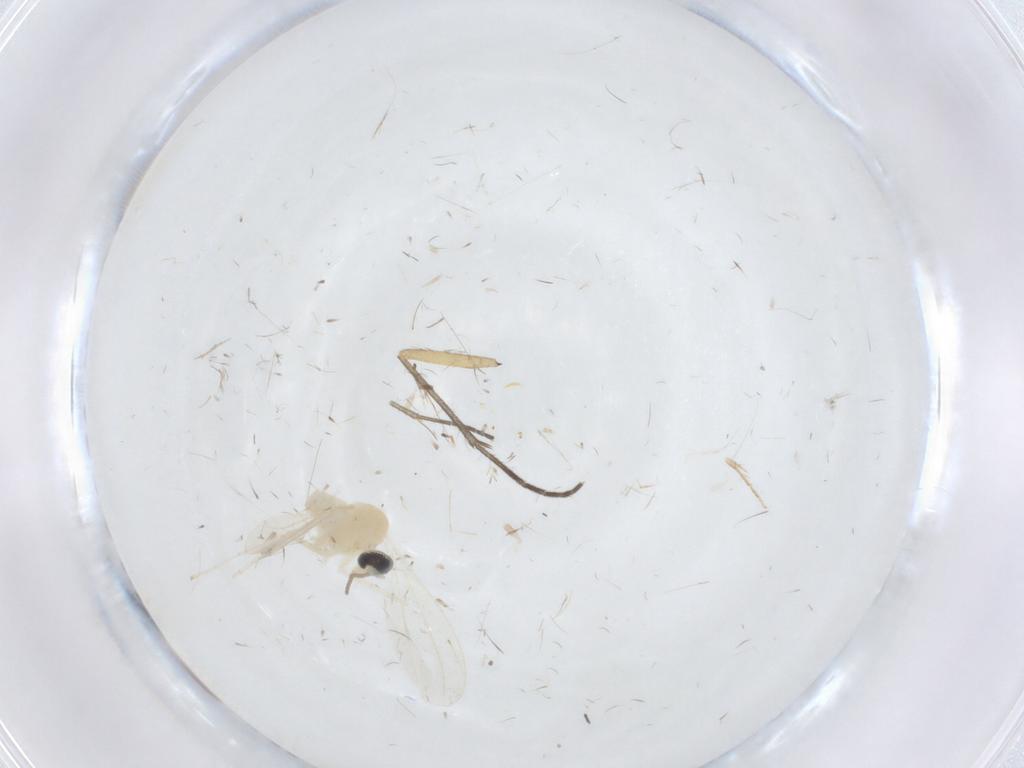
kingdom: Animalia
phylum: Arthropoda
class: Insecta
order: Diptera
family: Cecidomyiidae
